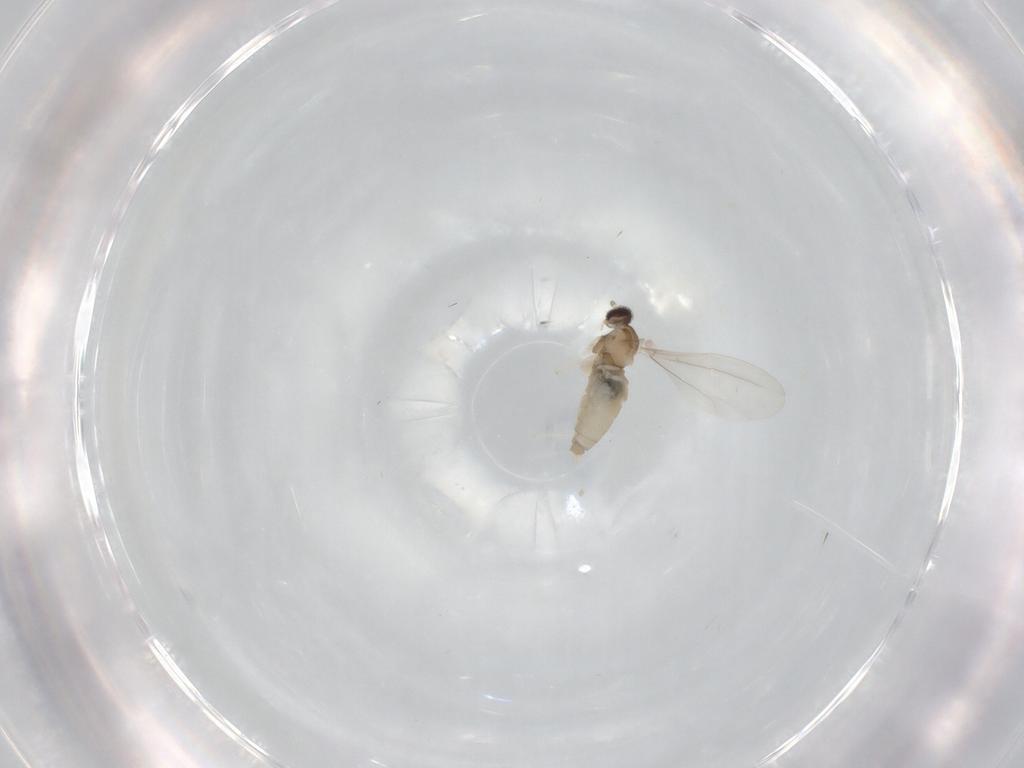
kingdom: Animalia
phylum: Arthropoda
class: Insecta
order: Diptera
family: Cecidomyiidae
